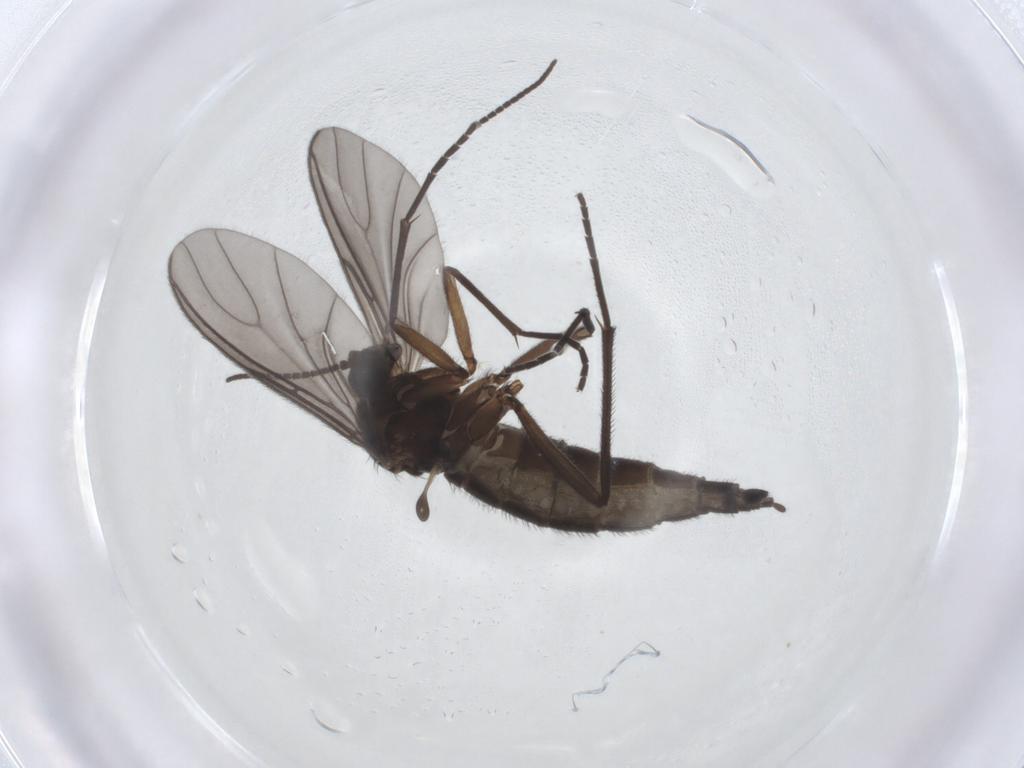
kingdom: Animalia
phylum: Arthropoda
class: Insecta
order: Diptera
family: Sciaridae
